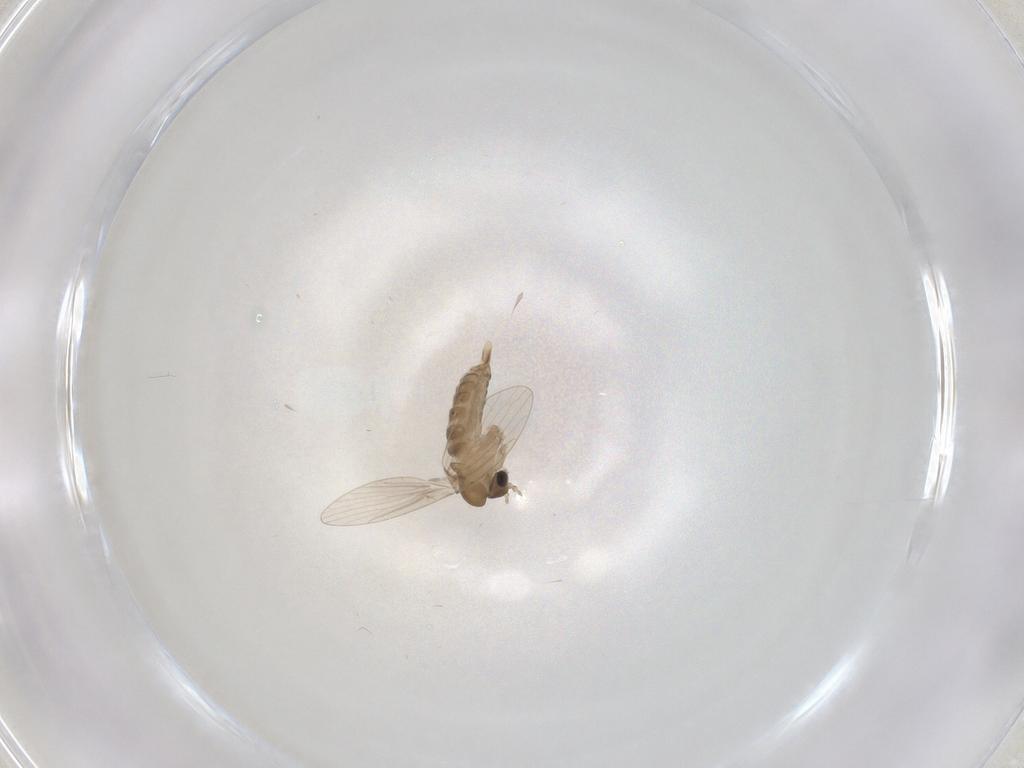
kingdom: Animalia
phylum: Arthropoda
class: Insecta
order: Diptera
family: Psychodidae
